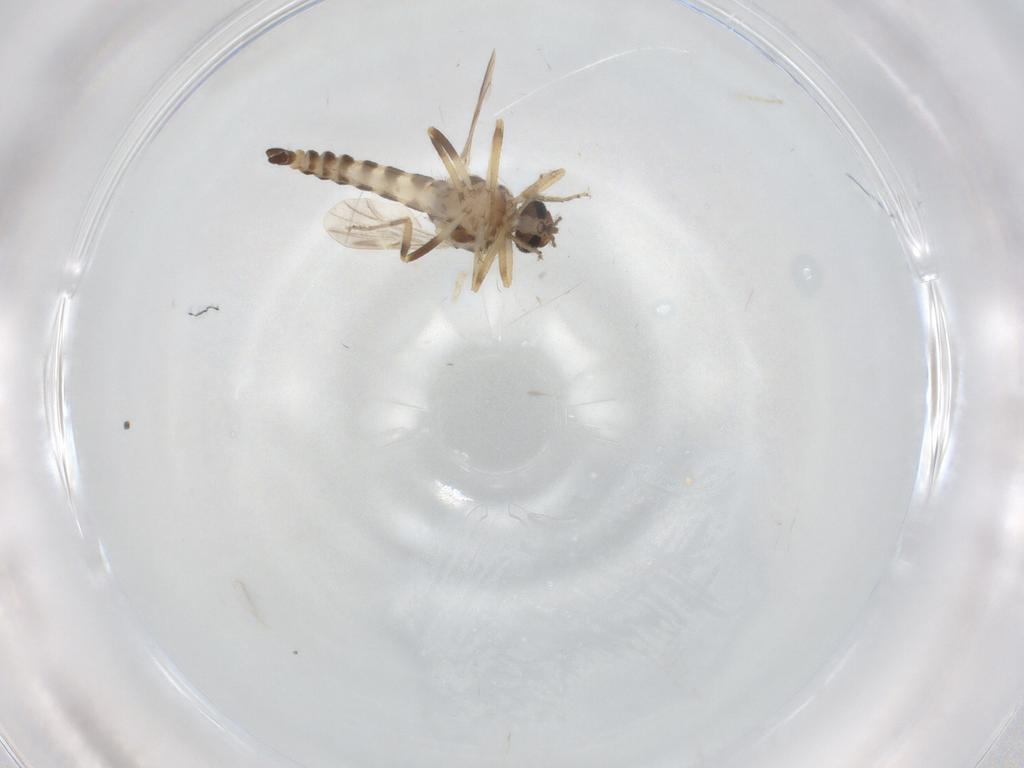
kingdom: Animalia
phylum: Arthropoda
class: Insecta
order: Diptera
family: Ceratopogonidae
